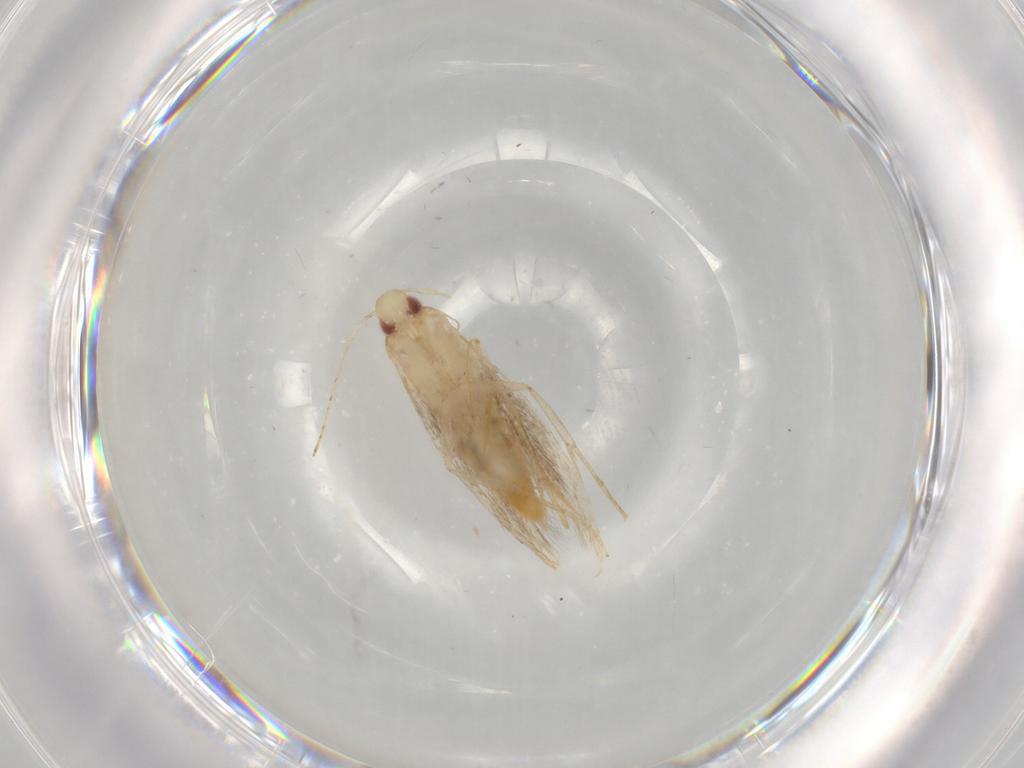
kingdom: Animalia
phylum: Arthropoda
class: Insecta
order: Lepidoptera
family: Gelechiidae
